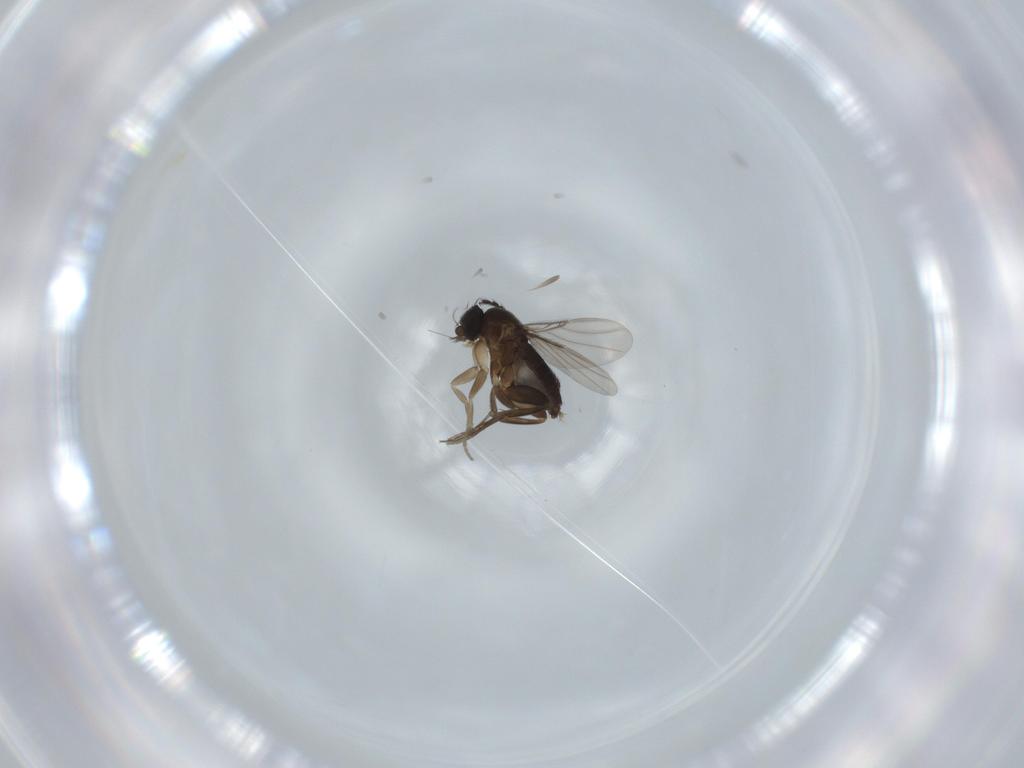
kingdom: Animalia
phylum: Arthropoda
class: Insecta
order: Diptera
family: Phoridae
